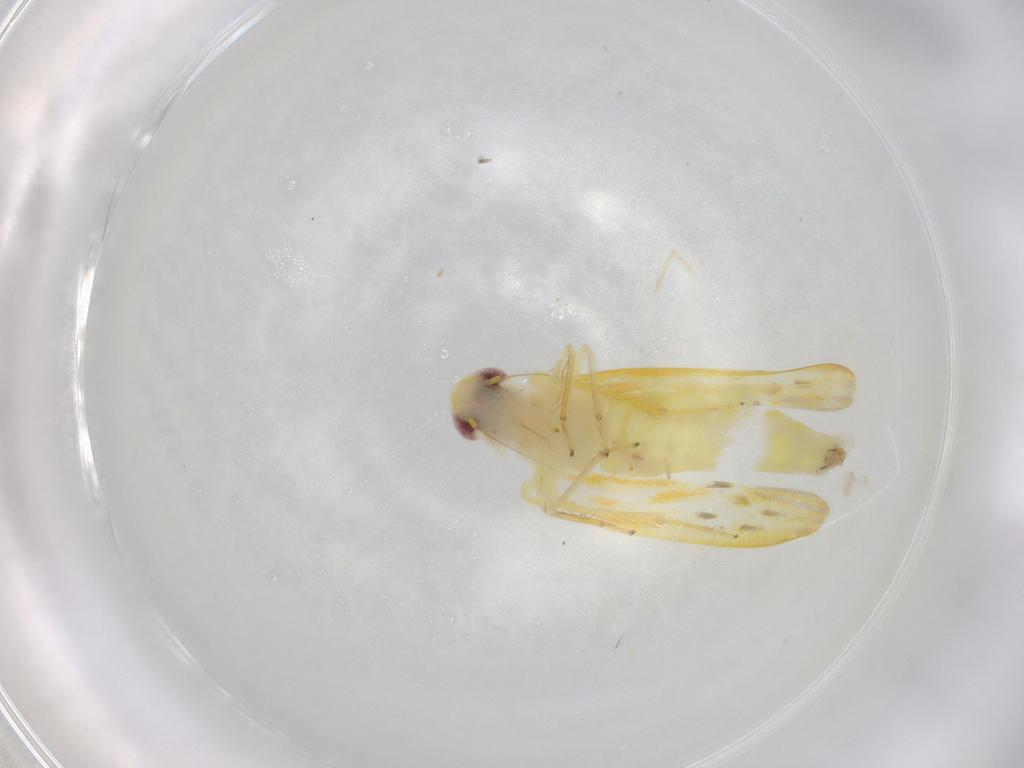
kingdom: Animalia
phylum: Arthropoda
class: Insecta
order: Hemiptera
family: Cicadellidae
